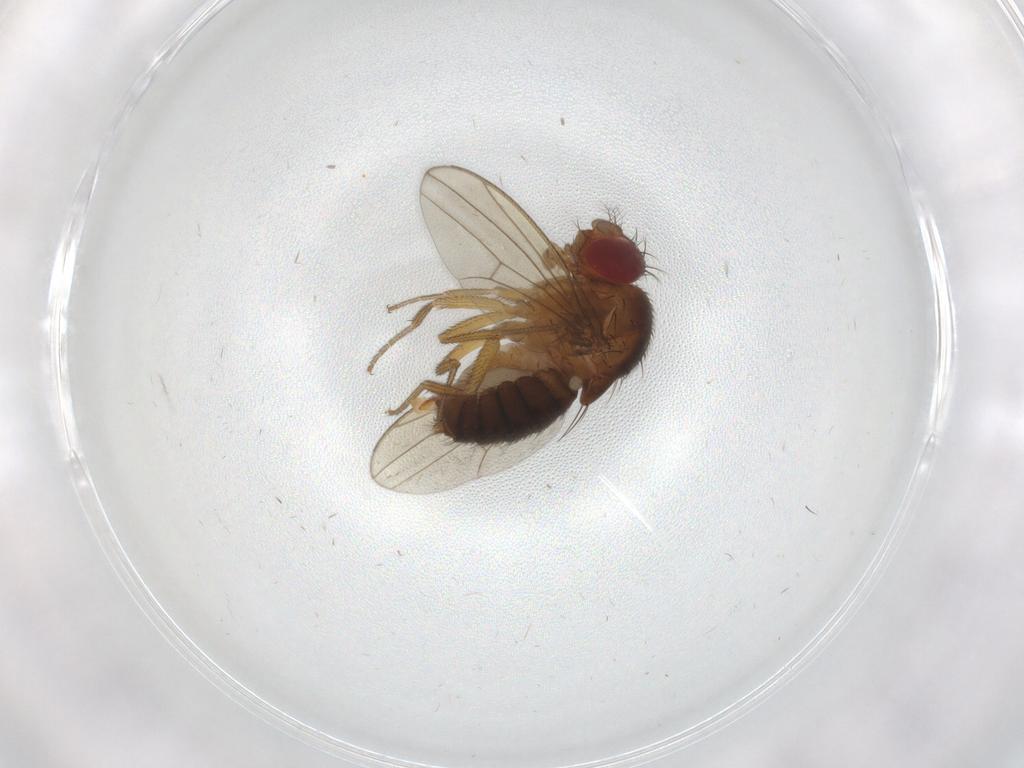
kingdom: Animalia
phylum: Arthropoda
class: Insecta
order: Diptera
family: Drosophilidae
